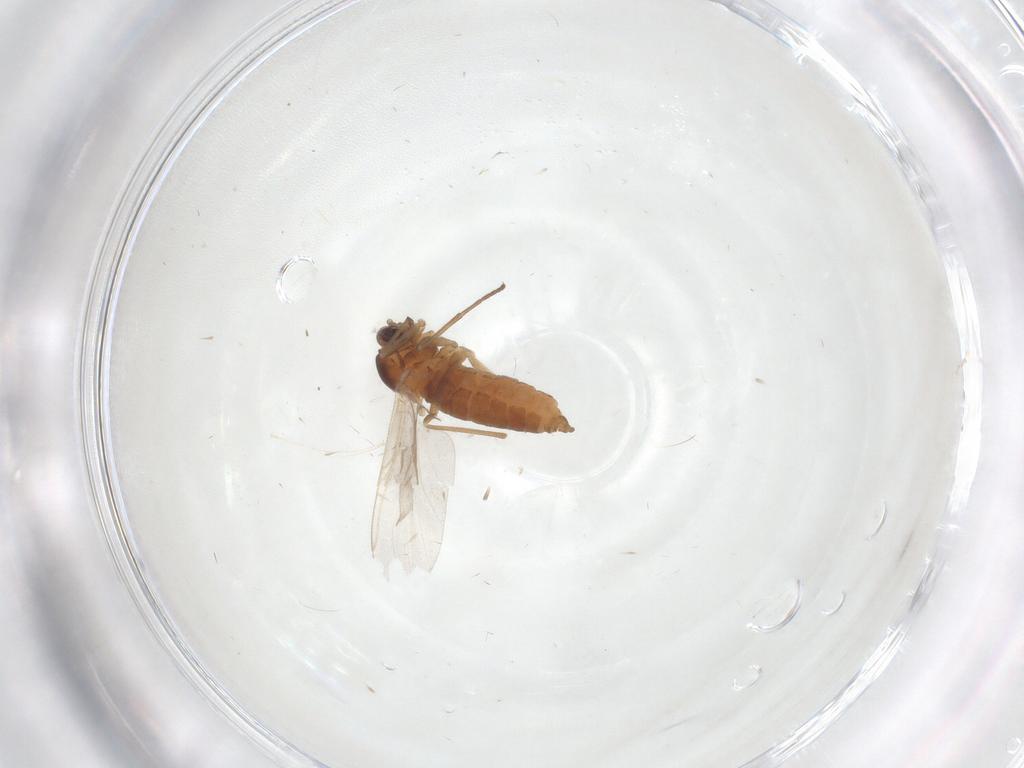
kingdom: Animalia
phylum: Arthropoda
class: Insecta
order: Diptera
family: Cecidomyiidae
